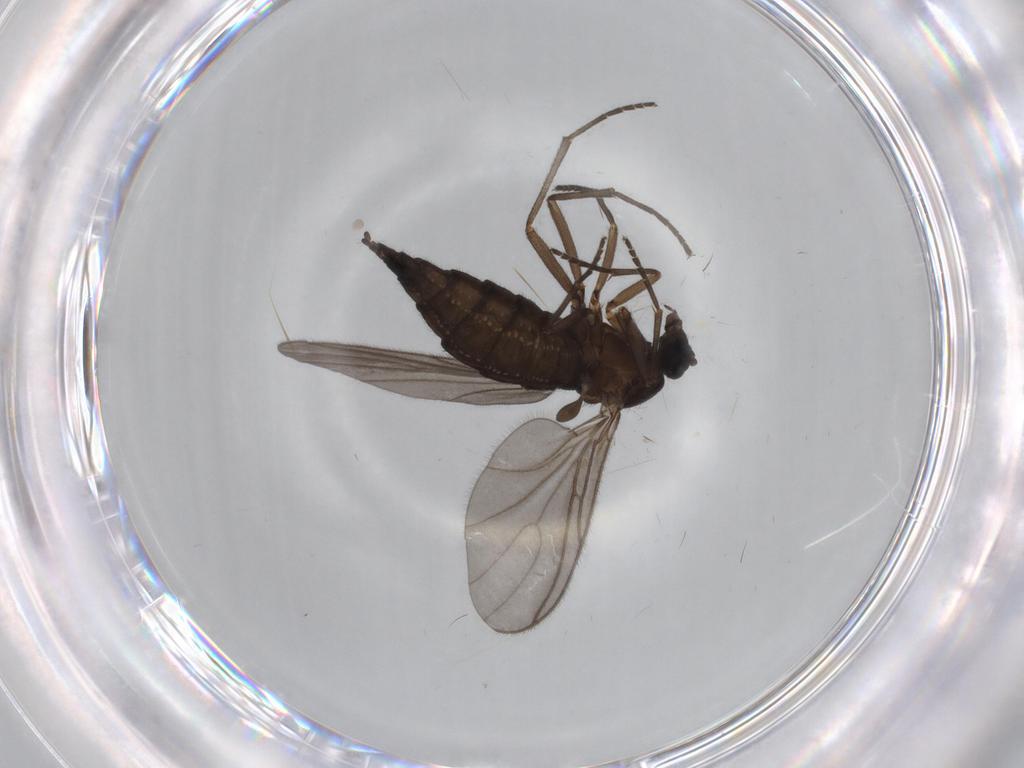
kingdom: Animalia
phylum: Arthropoda
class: Insecta
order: Diptera
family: Sciaridae
